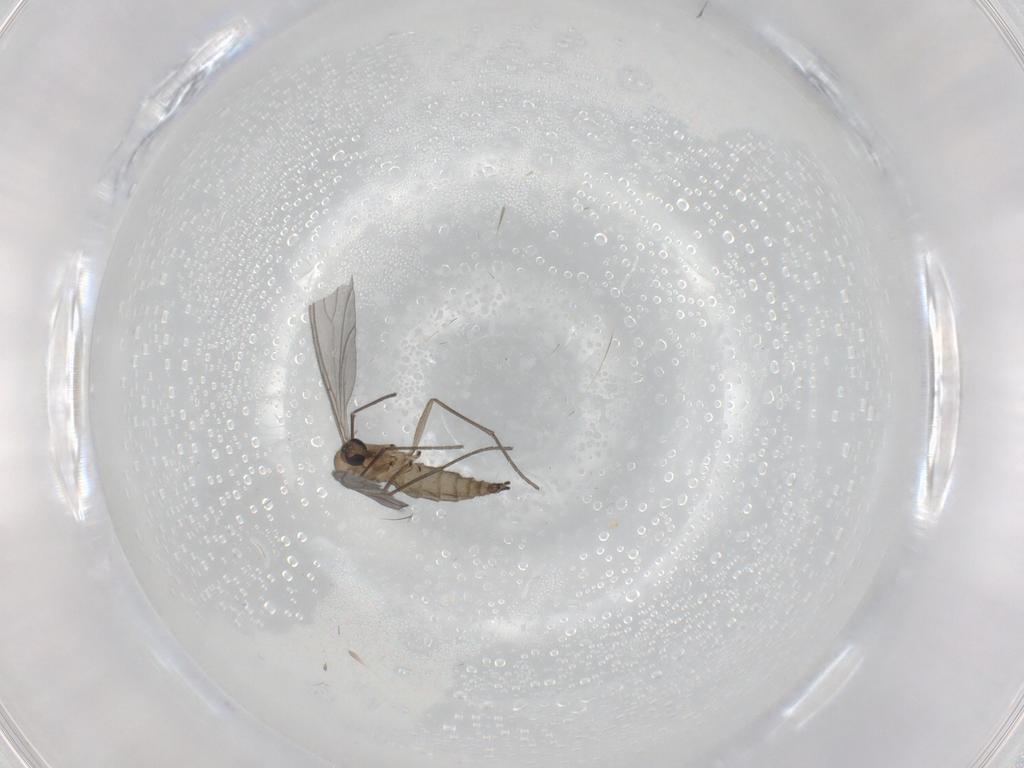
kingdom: Animalia
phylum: Arthropoda
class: Insecta
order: Diptera
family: Sciaridae
